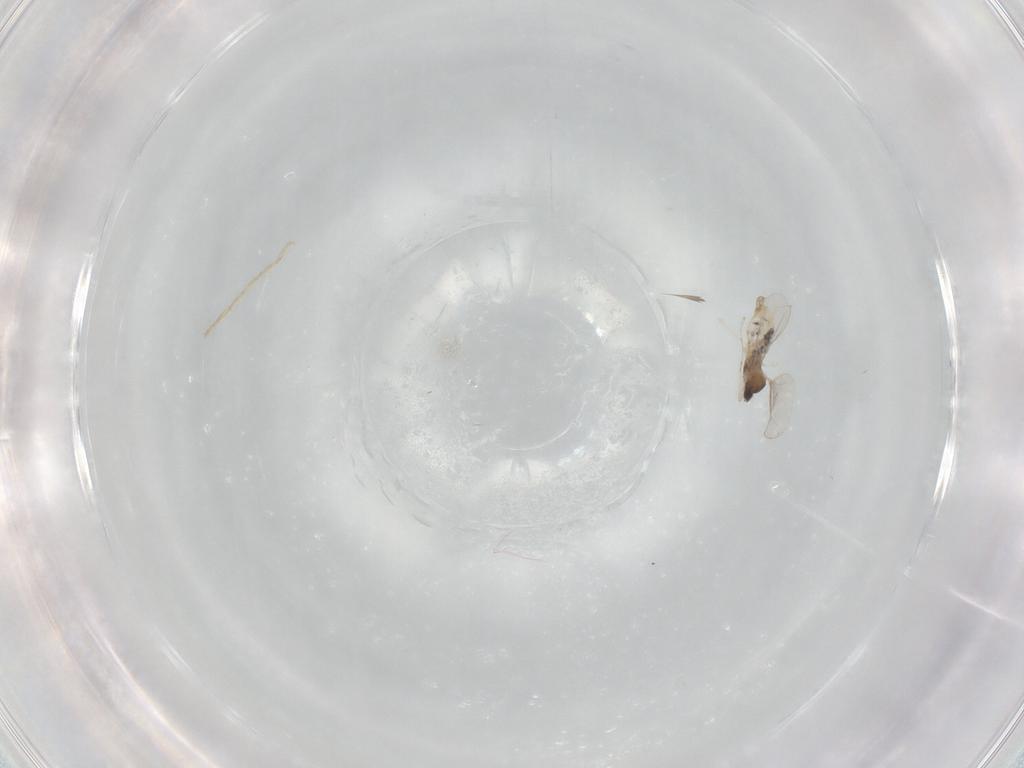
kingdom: Animalia
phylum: Arthropoda
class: Insecta
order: Diptera
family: Cecidomyiidae
